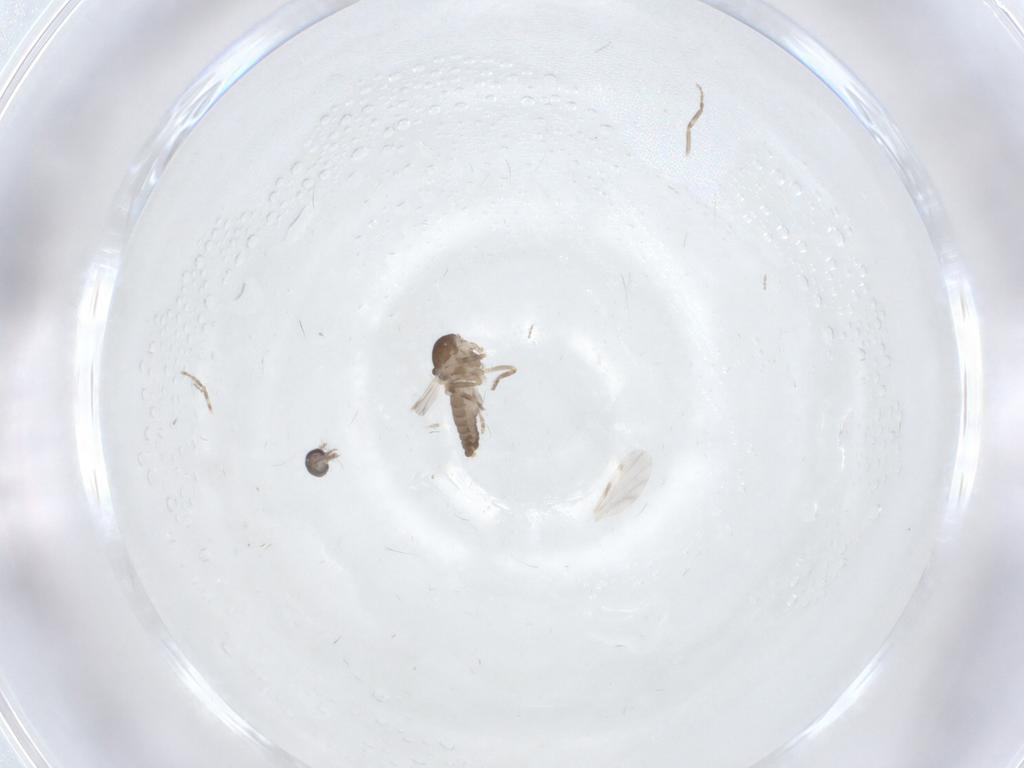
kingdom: Animalia
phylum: Arthropoda
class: Insecta
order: Diptera
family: Ceratopogonidae
